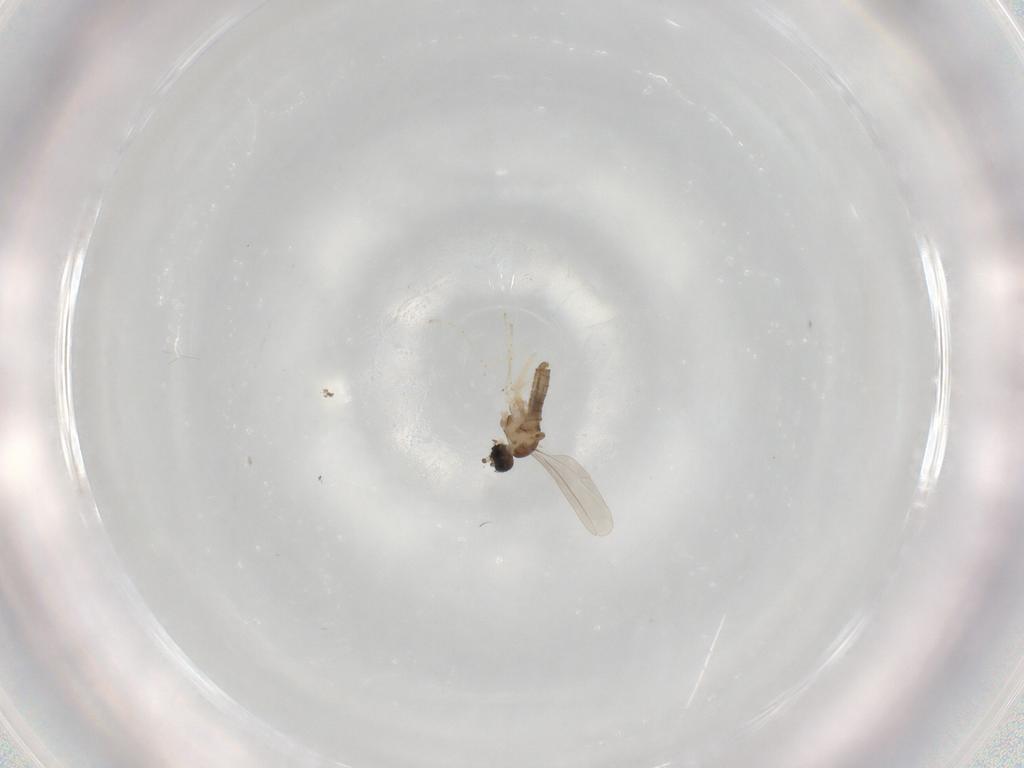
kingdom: Animalia
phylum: Arthropoda
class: Insecta
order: Diptera
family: Cecidomyiidae
